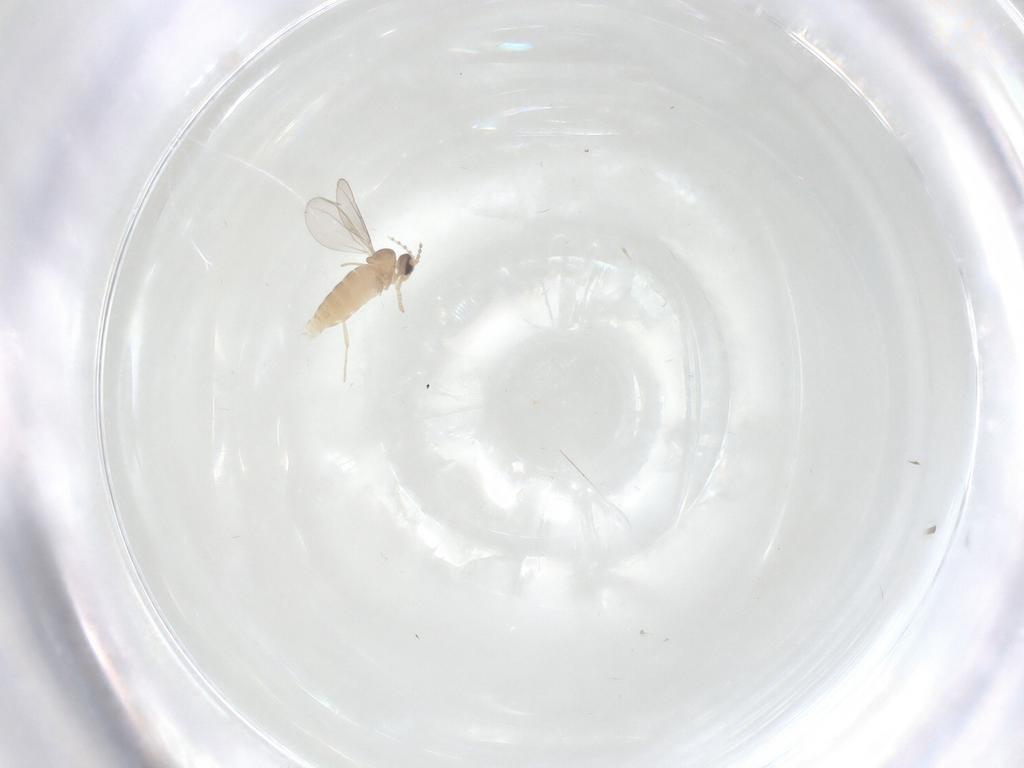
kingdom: Animalia
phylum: Arthropoda
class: Insecta
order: Diptera
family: Cecidomyiidae
